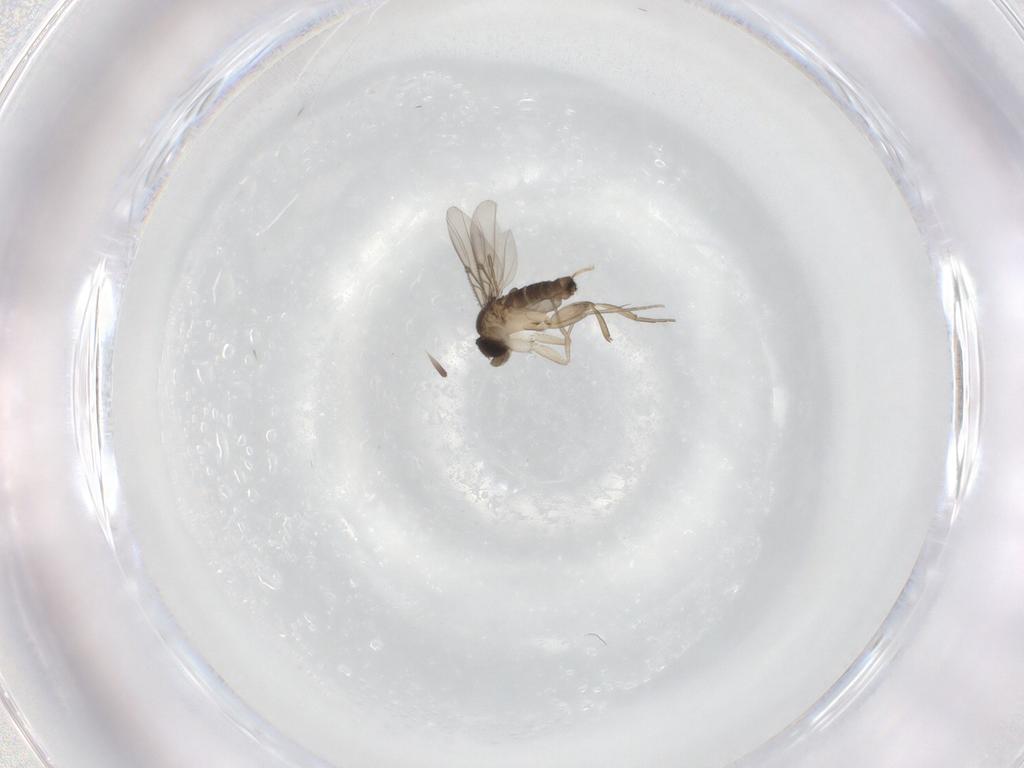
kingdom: Animalia
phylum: Arthropoda
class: Insecta
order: Diptera
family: Phoridae
